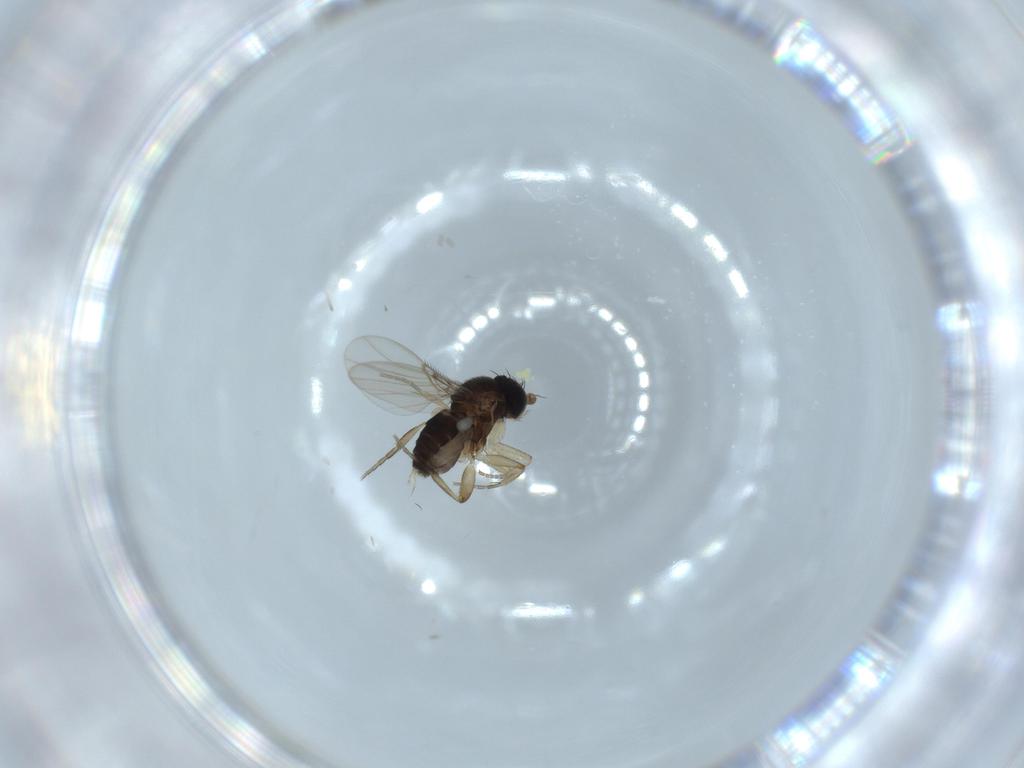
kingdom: Animalia
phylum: Arthropoda
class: Insecta
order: Diptera
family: Phoridae
